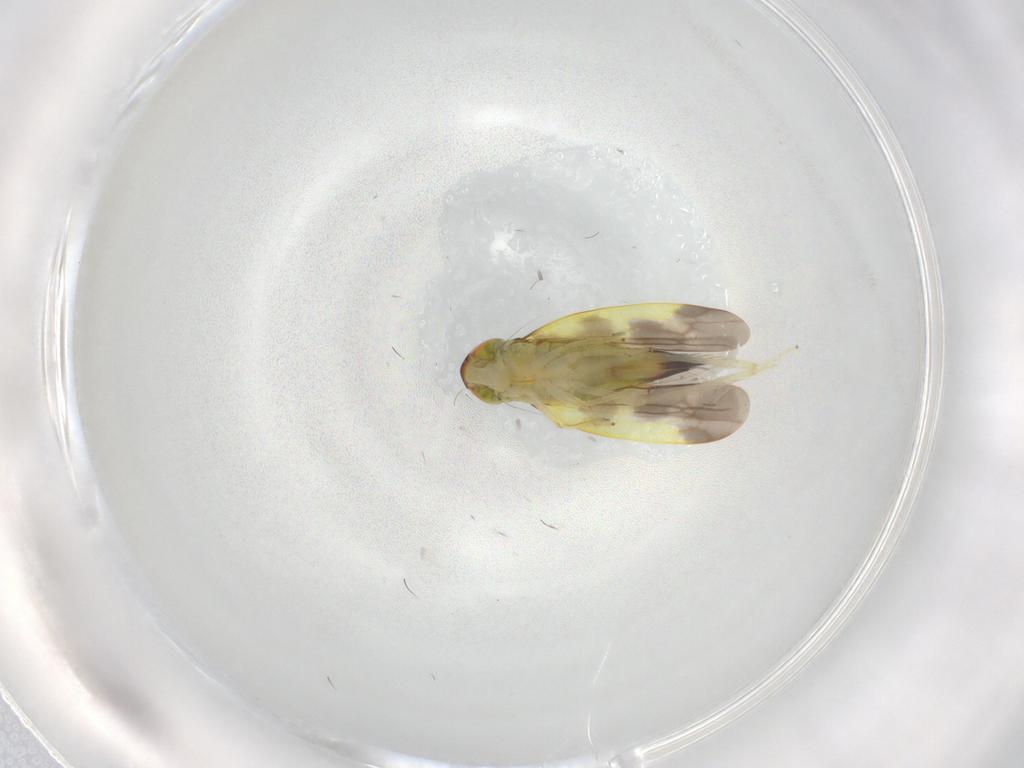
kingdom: Animalia
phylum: Arthropoda
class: Insecta
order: Hemiptera
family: Cicadellidae
